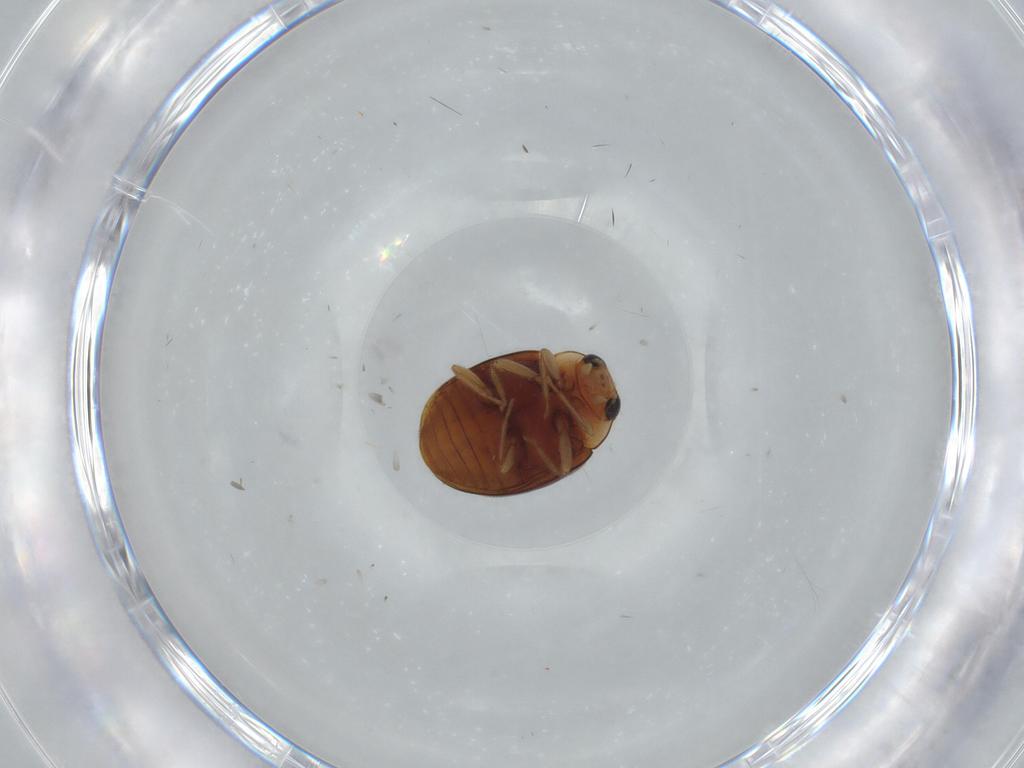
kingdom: Animalia
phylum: Arthropoda
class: Insecta
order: Coleoptera
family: Coccinellidae
